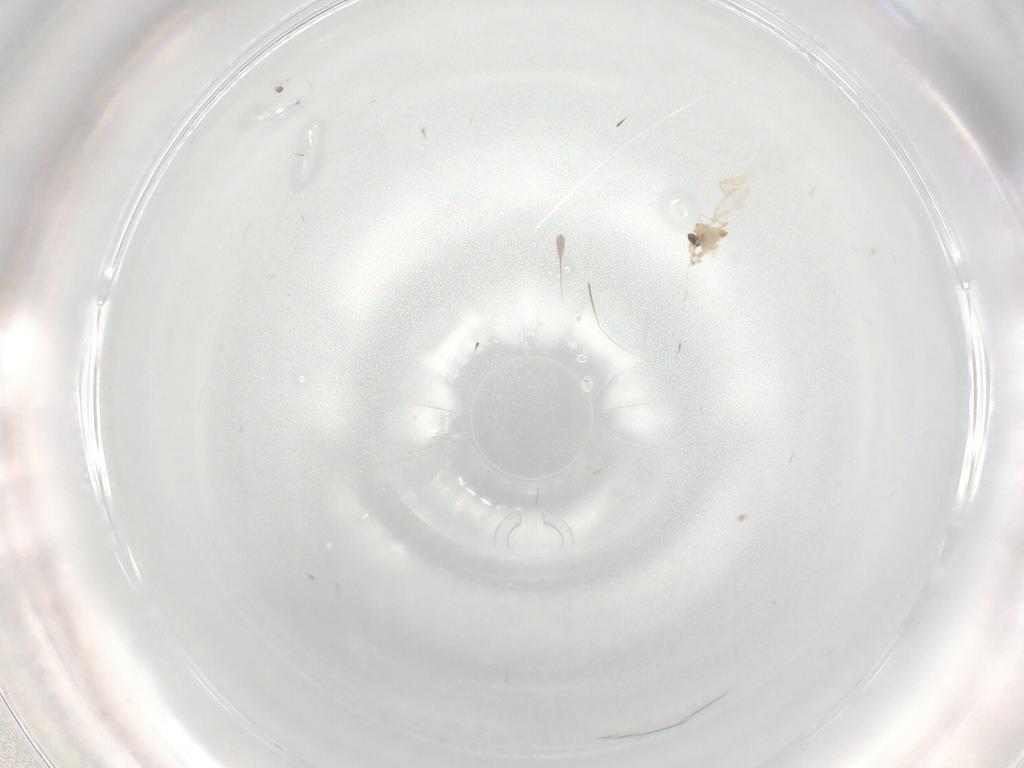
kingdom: Animalia
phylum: Arthropoda
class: Insecta
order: Diptera
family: Cecidomyiidae
